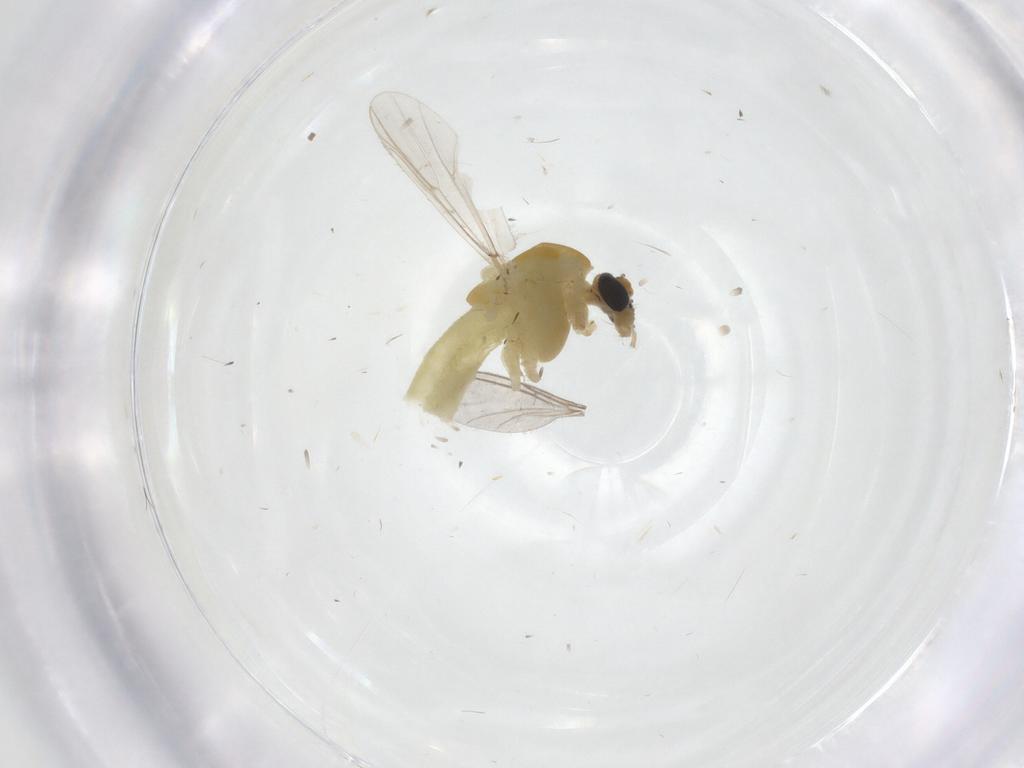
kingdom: Animalia
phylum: Arthropoda
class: Insecta
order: Diptera
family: Chironomidae
